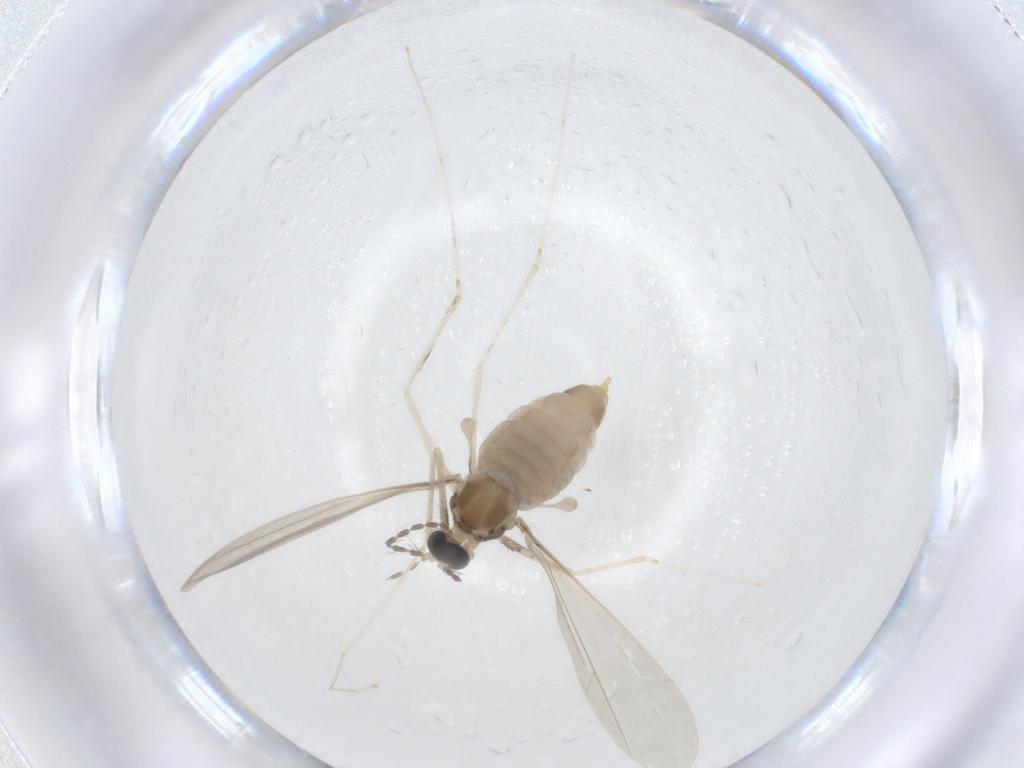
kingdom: Animalia
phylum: Arthropoda
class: Insecta
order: Diptera
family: Cecidomyiidae
